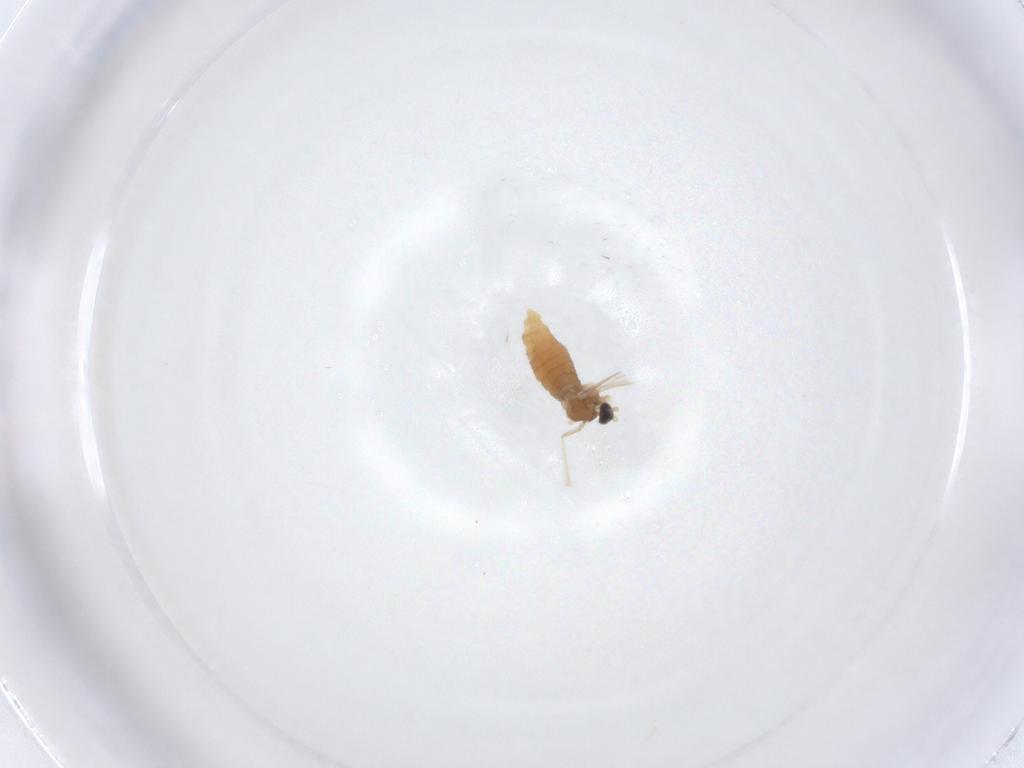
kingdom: Animalia
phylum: Arthropoda
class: Insecta
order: Diptera
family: Cecidomyiidae
